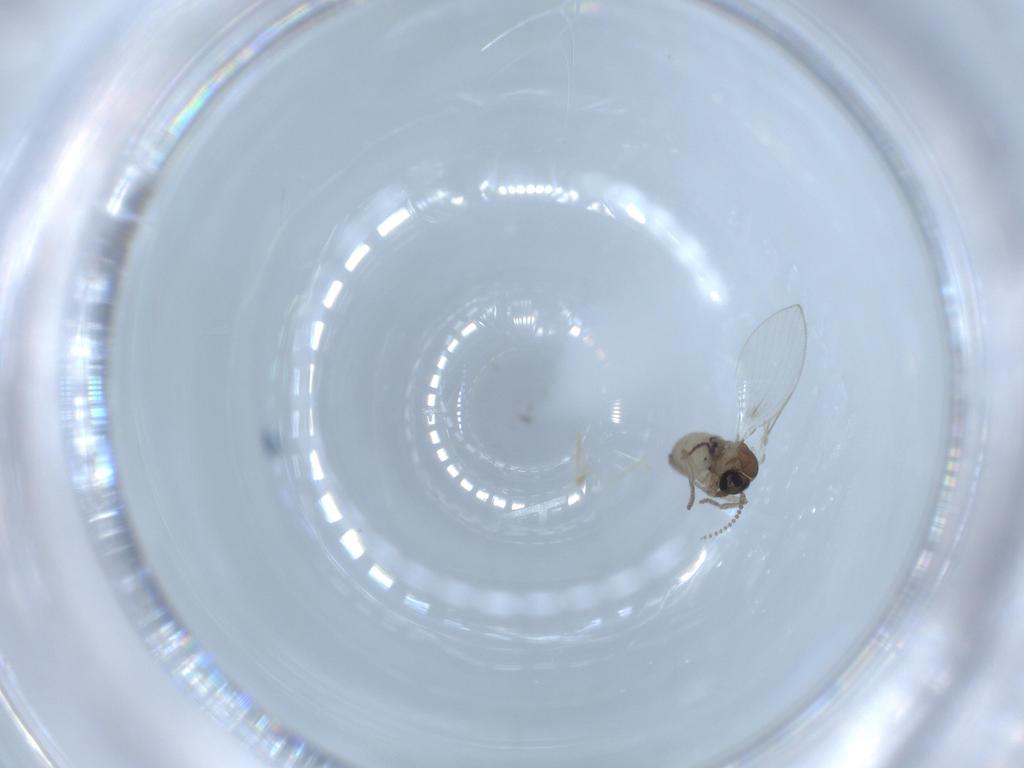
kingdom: Animalia
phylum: Arthropoda
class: Insecta
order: Diptera
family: Psychodidae
